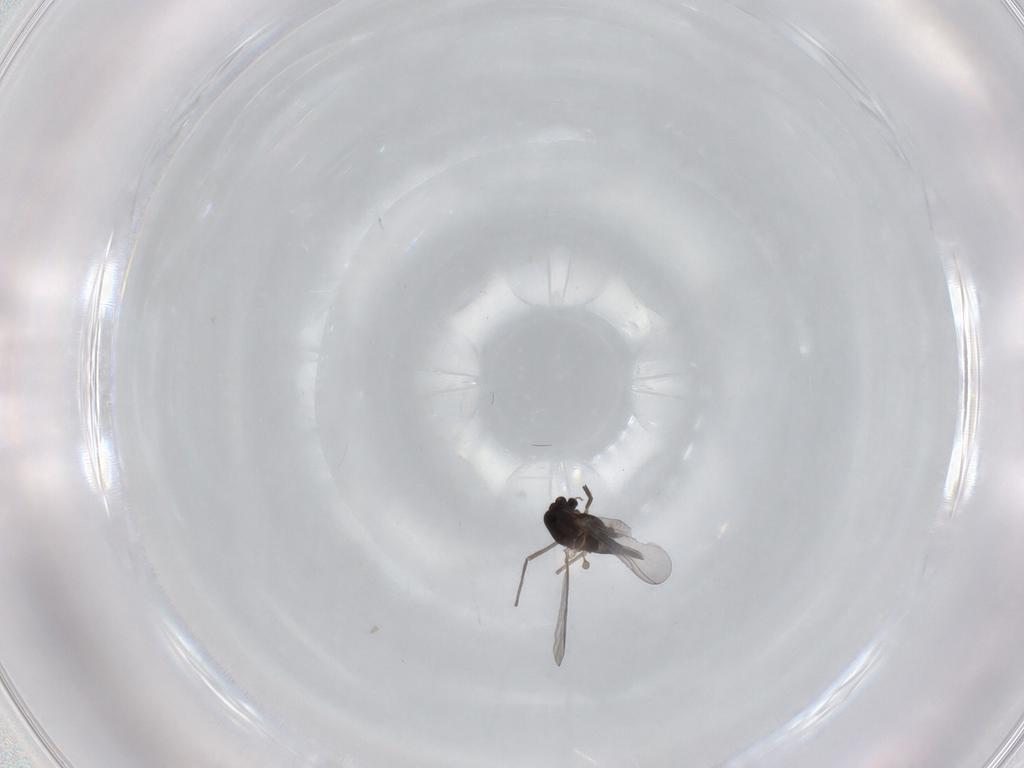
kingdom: Animalia
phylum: Arthropoda
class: Insecta
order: Diptera
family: Chironomidae
